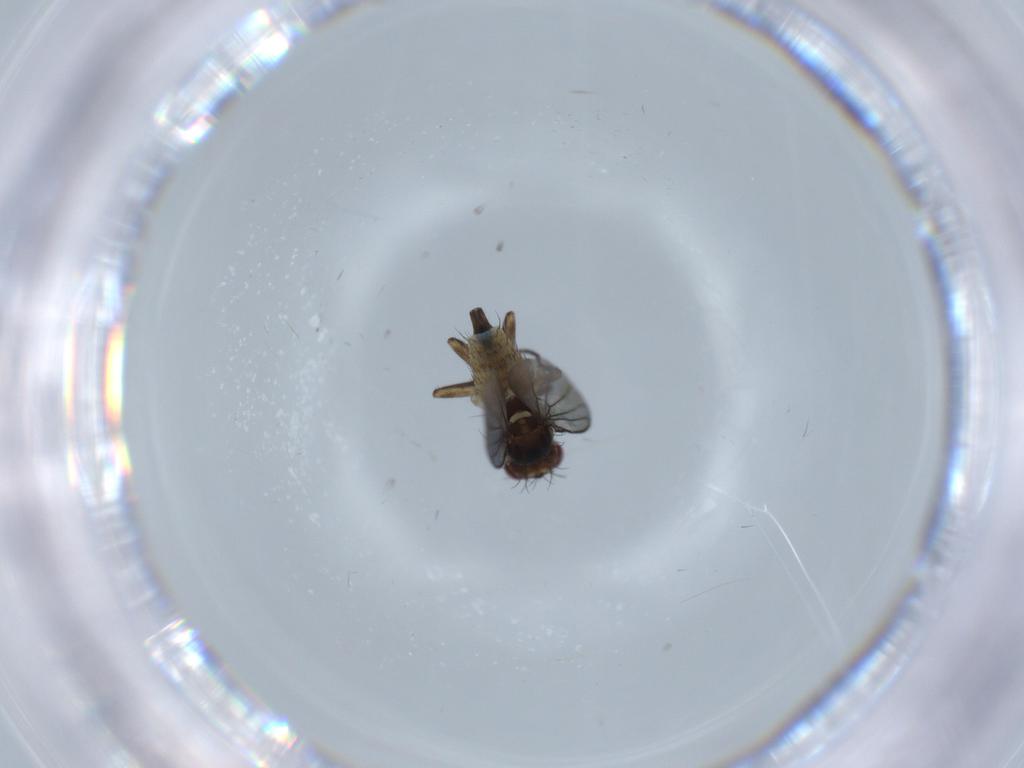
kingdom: Animalia
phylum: Arthropoda
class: Insecta
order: Diptera
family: Agromyzidae
